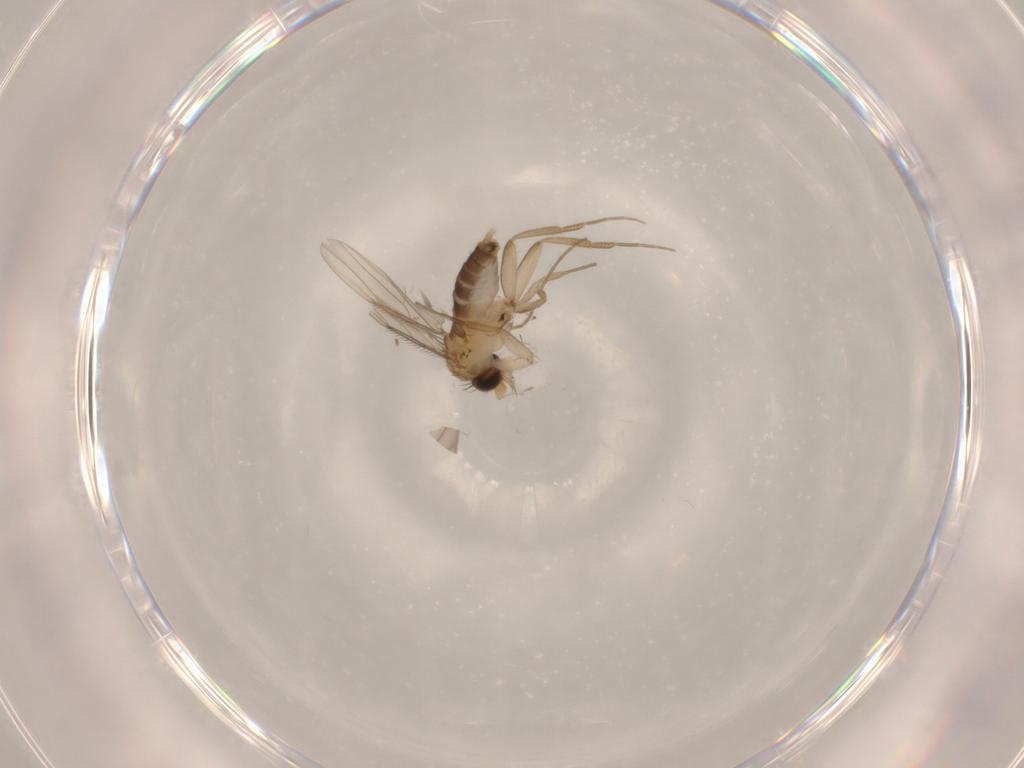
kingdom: Animalia
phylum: Arthropoda
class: Insecta
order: Diptera
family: Phoridae
